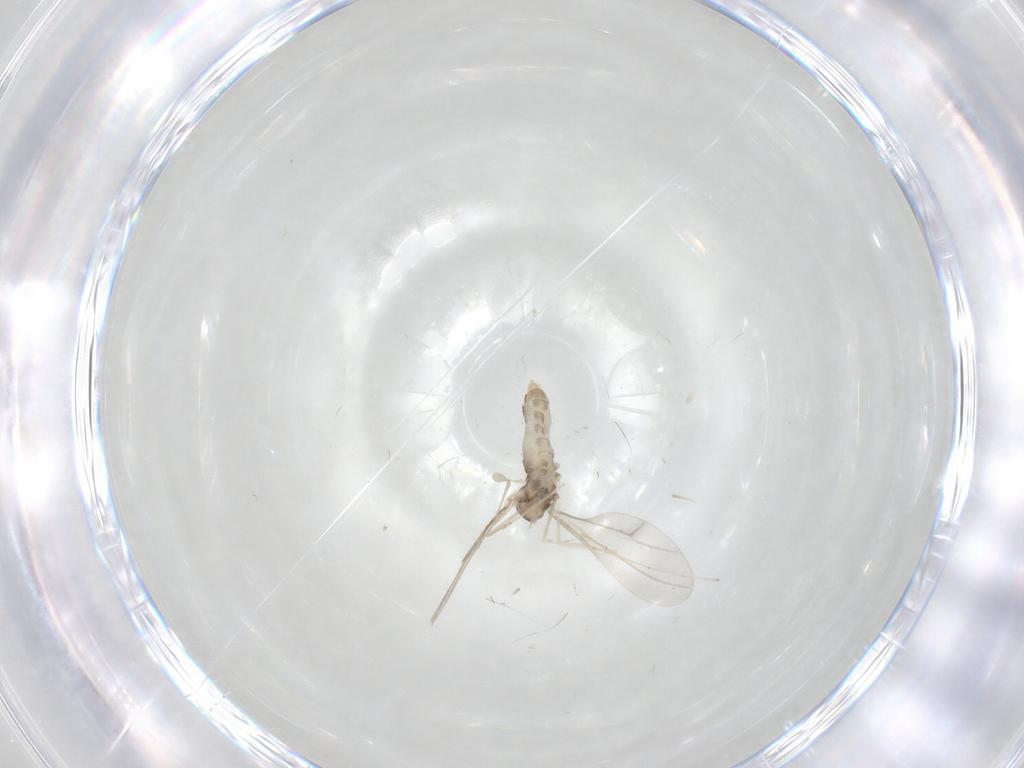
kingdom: Animalia
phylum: Arthropoda
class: Insecta
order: Diptera
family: Cecidomyiidae
